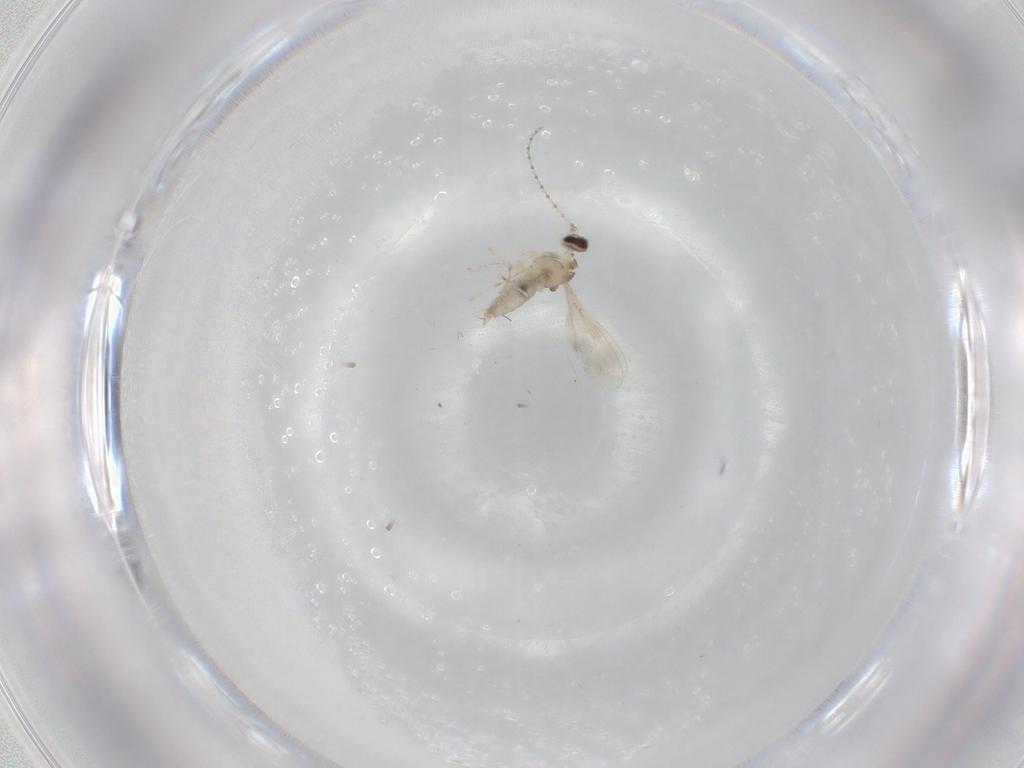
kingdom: Animalia
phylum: Arthropoda
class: Insecta
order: Diptera
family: Cecidomyiidae
